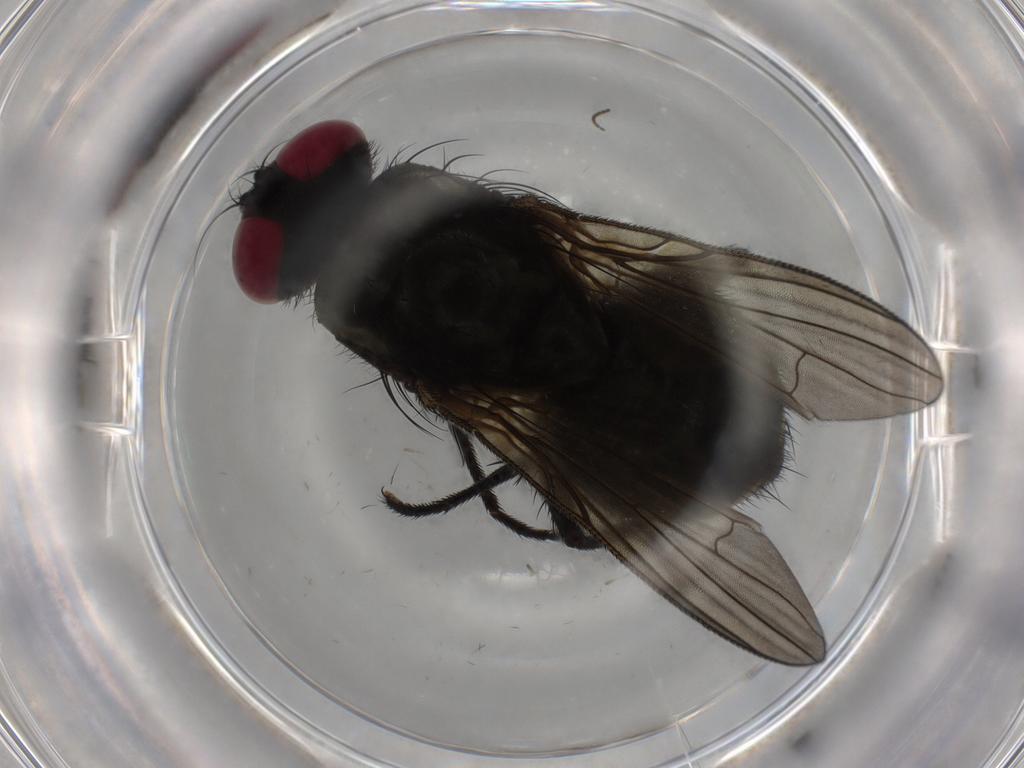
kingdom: Animalia
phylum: Arthropoda
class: Insecta
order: Diptera
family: Muscidae
